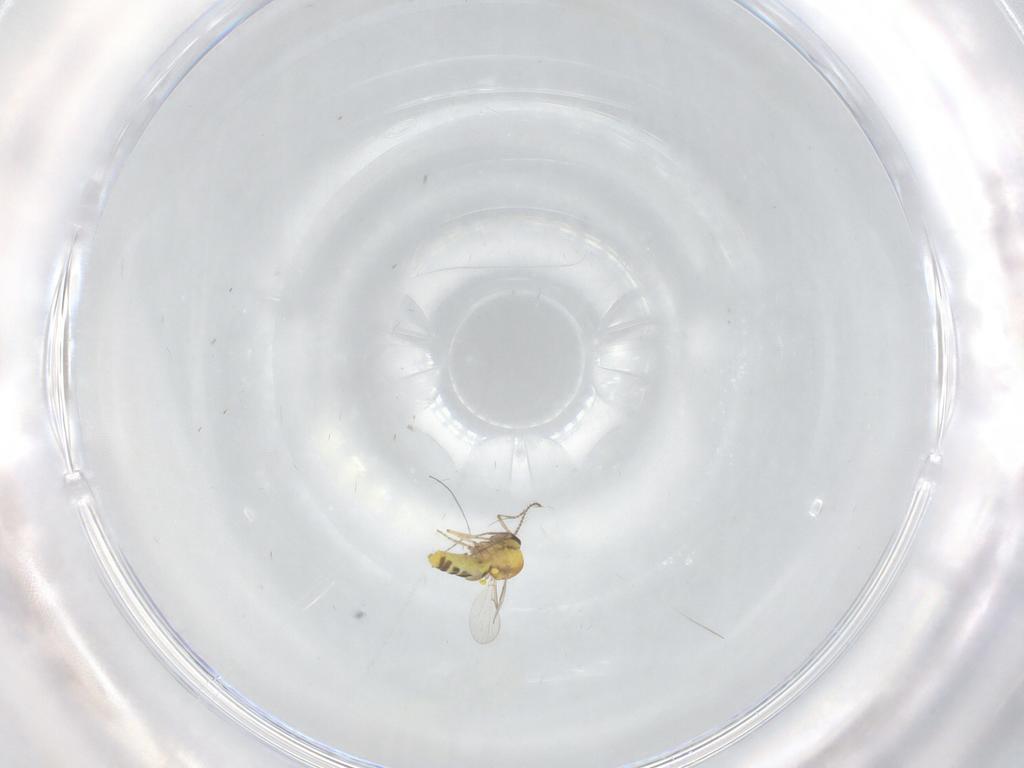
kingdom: Animalia
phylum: Arthropoda
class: Insecta
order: Diptera
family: Ceratopogonidae
